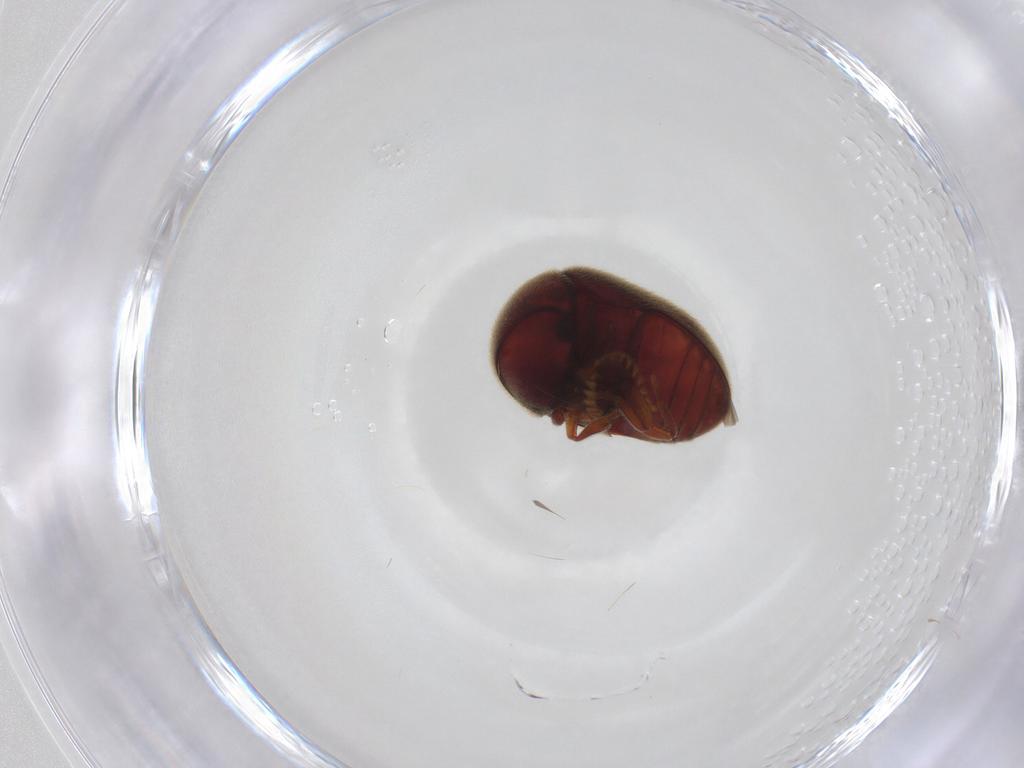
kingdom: Animalia
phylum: Arthropoda
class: Insecta
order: Coleoptera
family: Ptinidae
